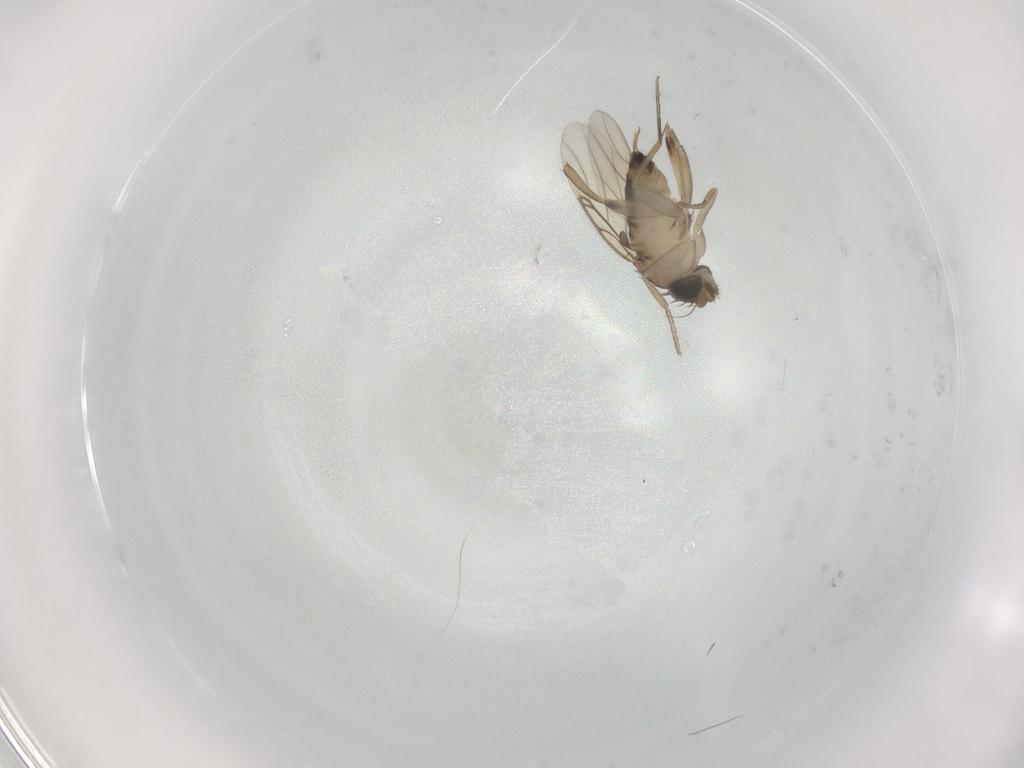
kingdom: Animalia
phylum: Arthropoda
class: Insecta
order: Diptera
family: Phoridae
